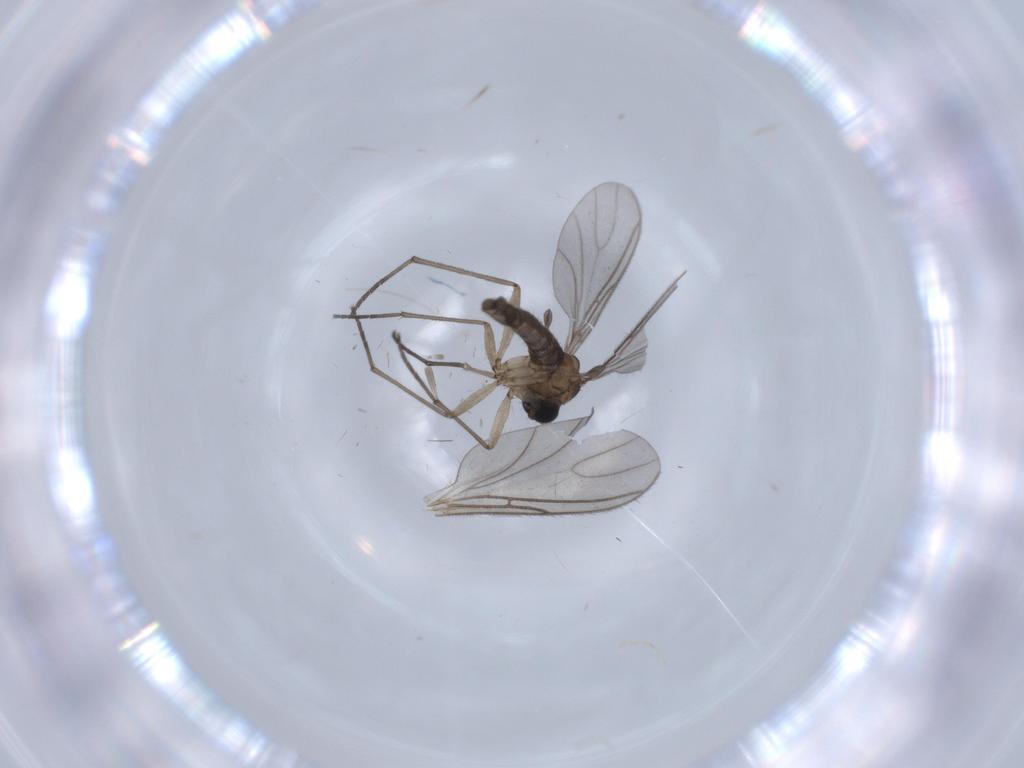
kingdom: Animalia
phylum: Arthropoda
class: Insecta
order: Diptera
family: Sciaridae
